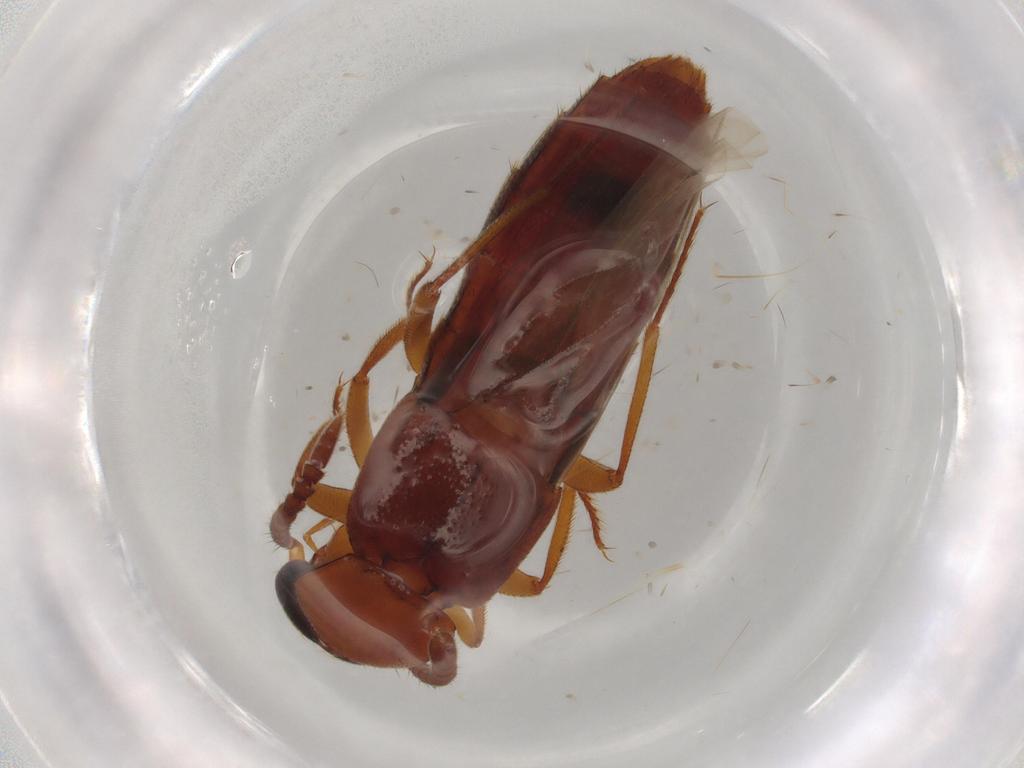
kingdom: Animalia
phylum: Arthropoda
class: Insecta
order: Coleoptera
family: Staphylinidae
